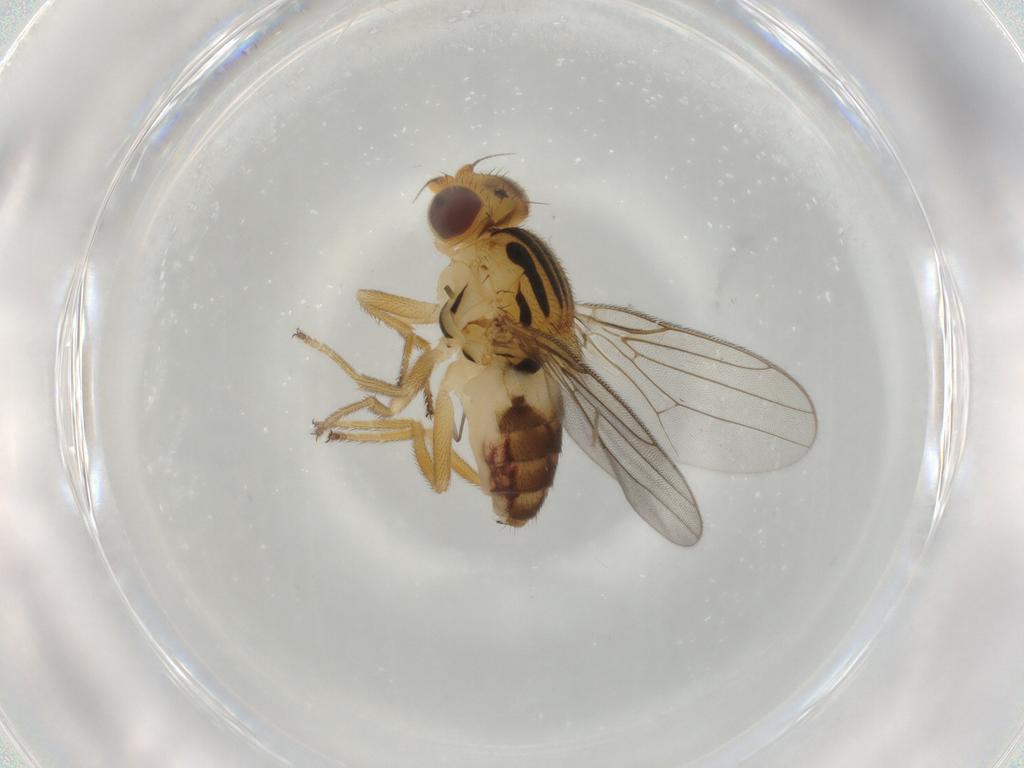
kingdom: Animalia
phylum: Arthropoda
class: Insecta
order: Diptera
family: Chloropidae
